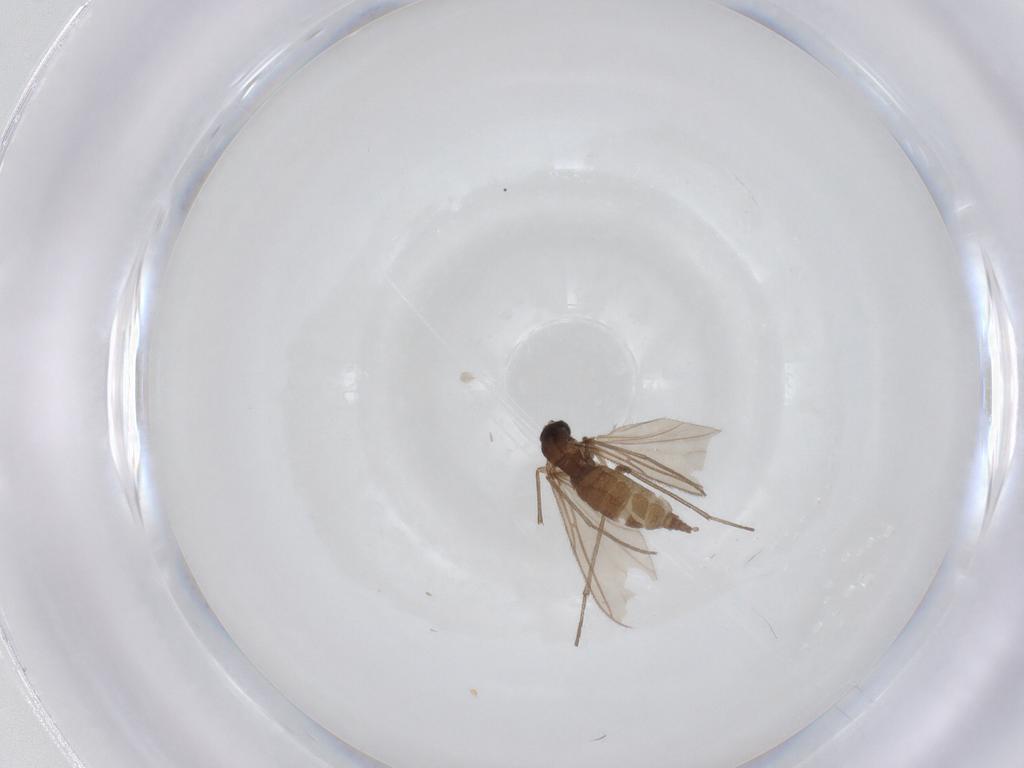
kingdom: Animalia
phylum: Arthropoda
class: Insecta
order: Diptera
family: Sciaridae
